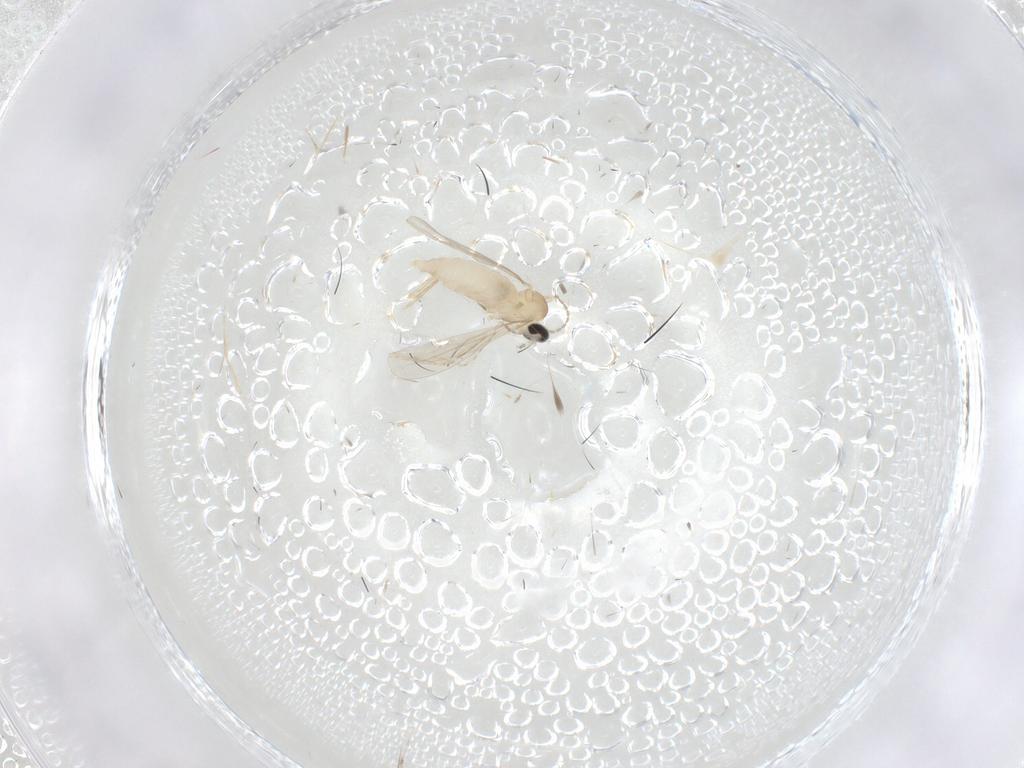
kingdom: Animalia
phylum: Arthropoda
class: Insecta
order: Diptera
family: Cecidomyiidae
